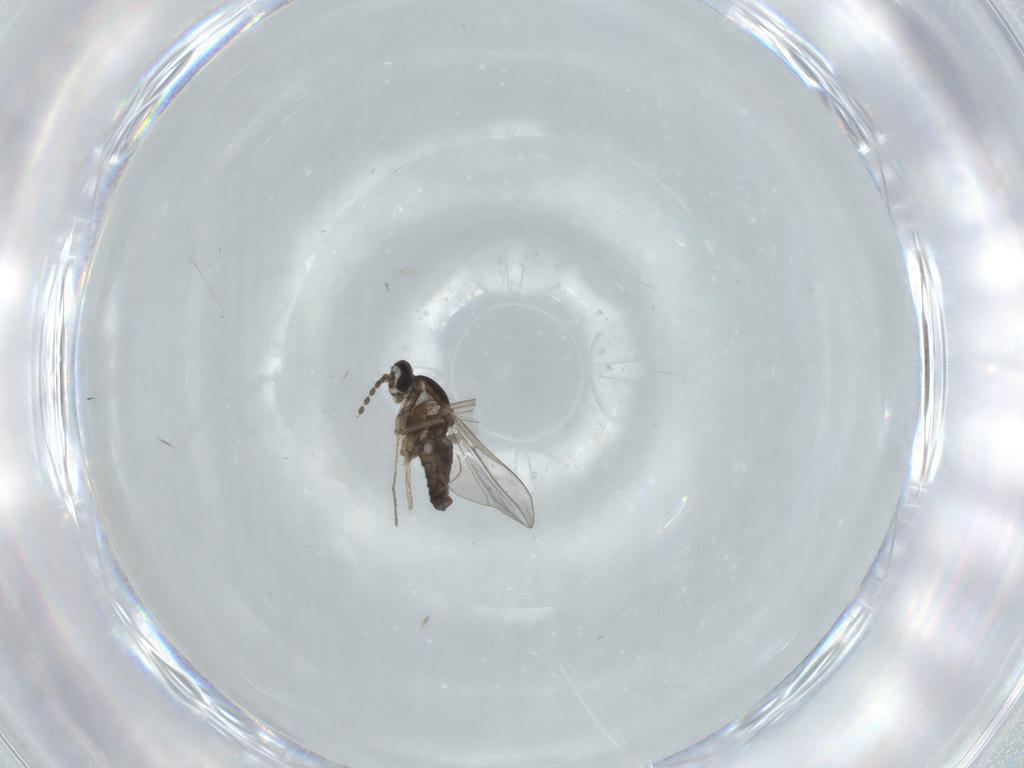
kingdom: Animalia
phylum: Arthropoda
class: Insecta
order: Diptera
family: Cecidomyiidae
